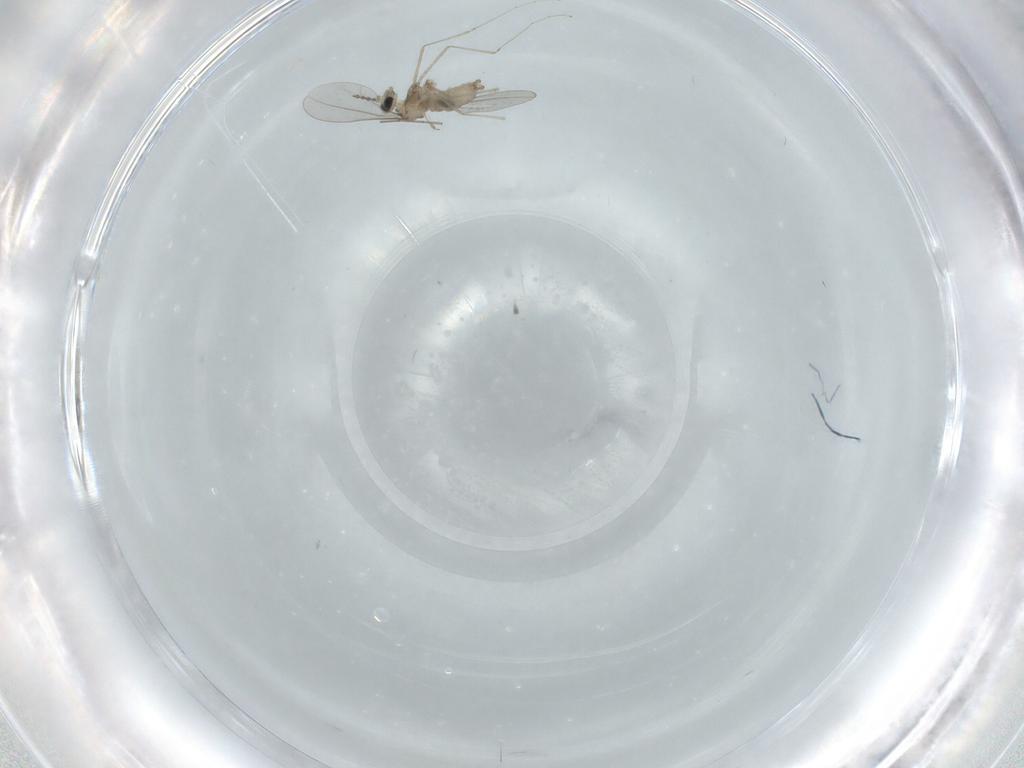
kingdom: Animalia
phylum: Arthropoda
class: Insecta
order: Diptera
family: Cecidomyiidae
